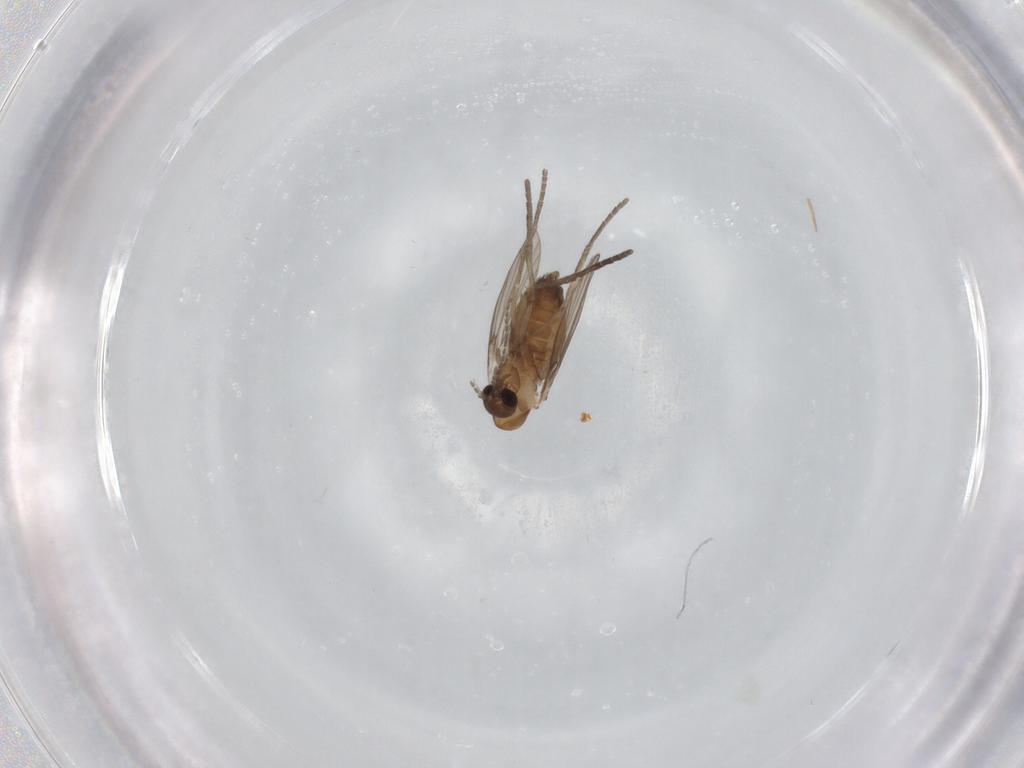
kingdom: Animalia
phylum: Arthropoda
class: Insecta
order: Diptera
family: Psychodidae
